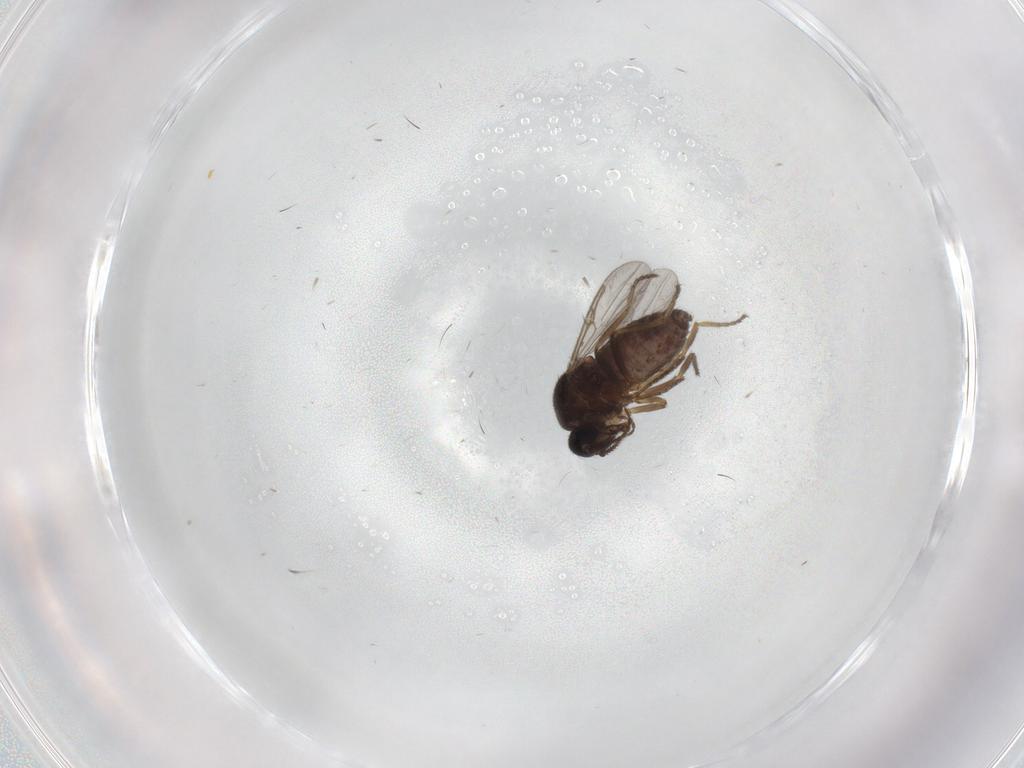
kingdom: Animalia
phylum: Arthropoda
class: Insecta
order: Diptera
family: Ceratopogonidae
